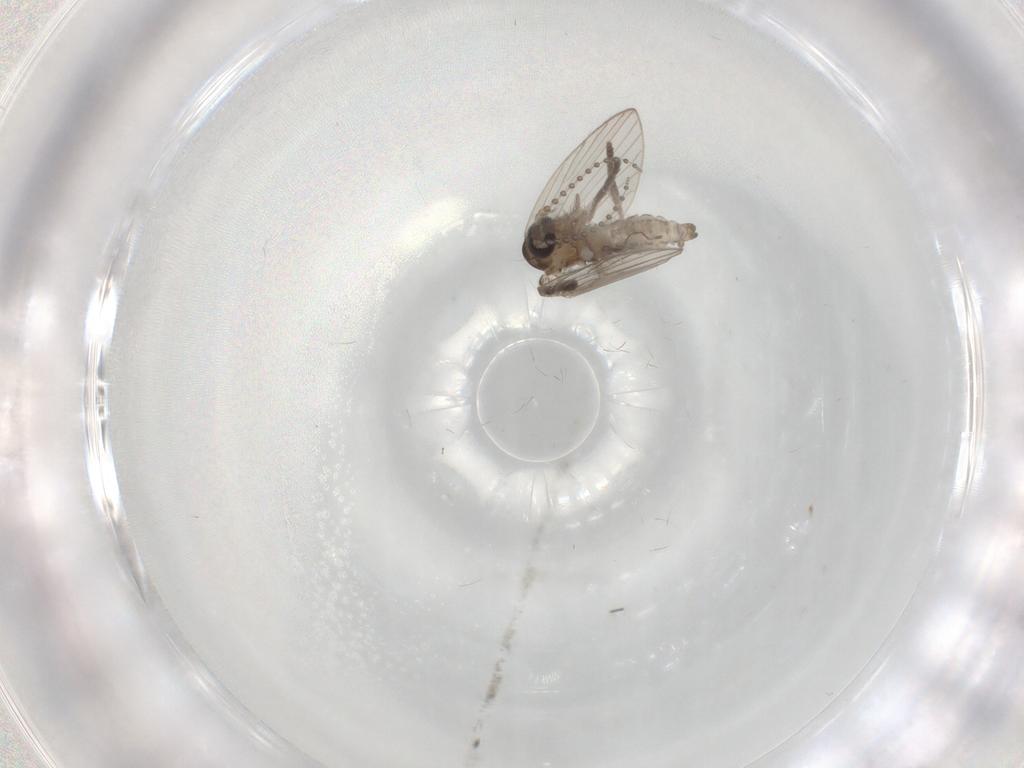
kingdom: Animalia
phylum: Arthropoda
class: Insecta
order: Diptera
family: Psychodidae
